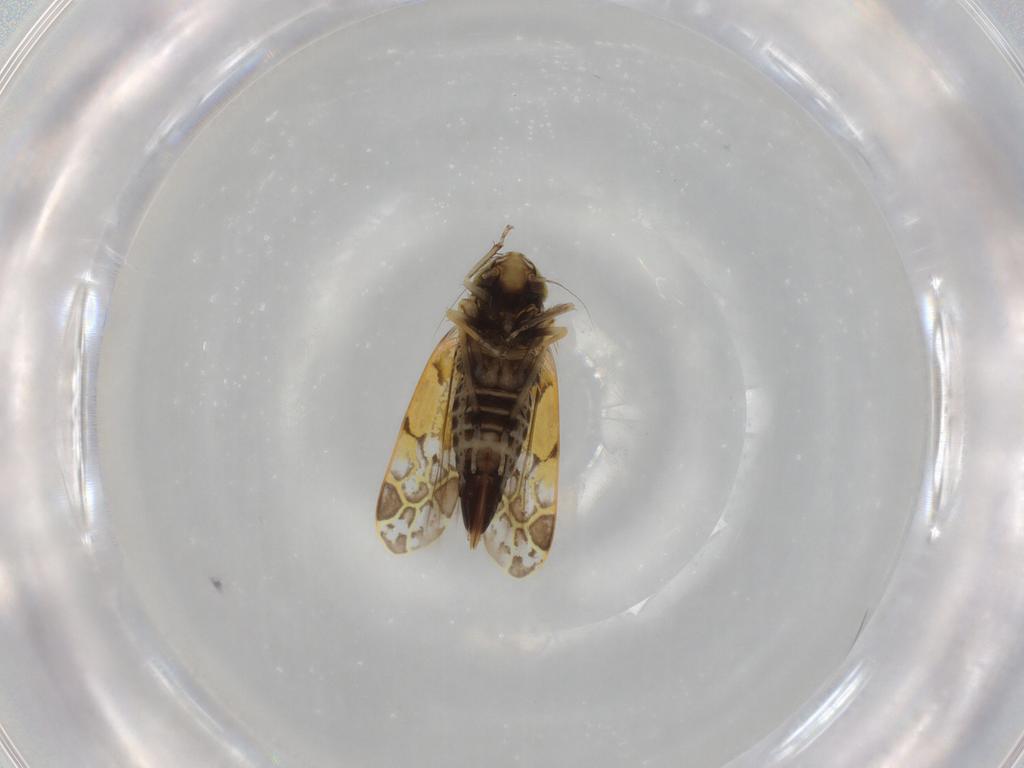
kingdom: Animalia
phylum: Arthropoda
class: Insecta
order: Hemiptera
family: Cicadellidae
